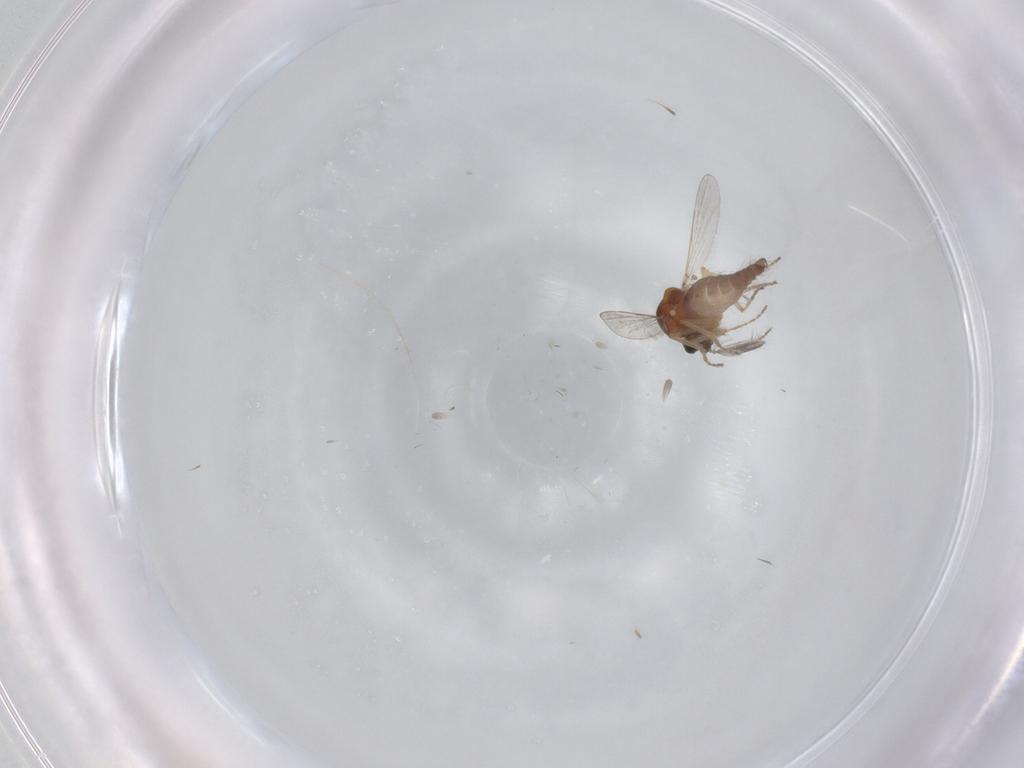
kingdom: Animalia
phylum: Arthropoda
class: Insecta
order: Diptera
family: Ceratopogonidae
